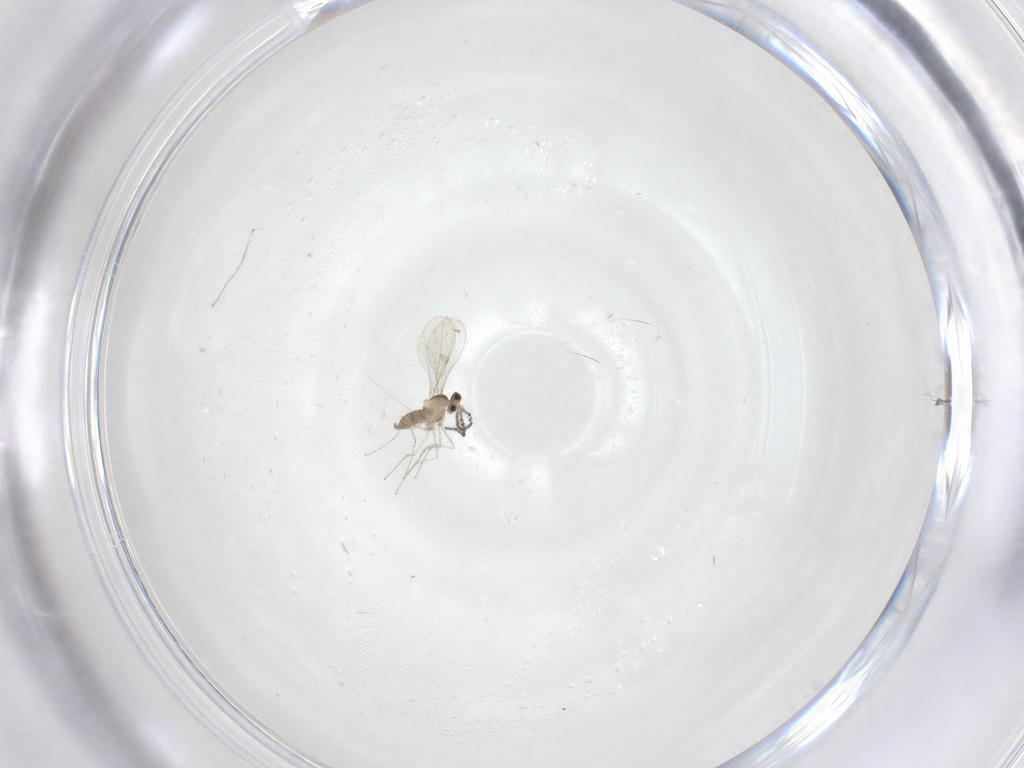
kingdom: Animalia
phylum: Arthropoda
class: Insecta
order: Diptera
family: Cecidomyiidae
